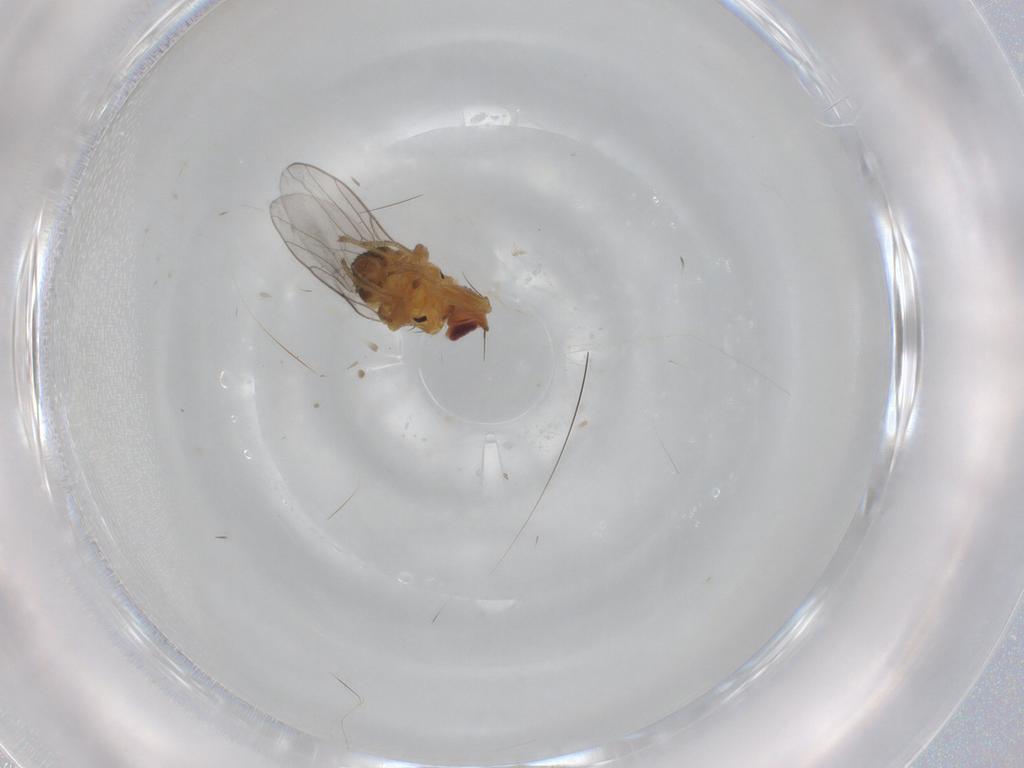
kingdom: Animalia
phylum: Arthropoda
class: Insecta
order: Diptera
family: Chloropidae
